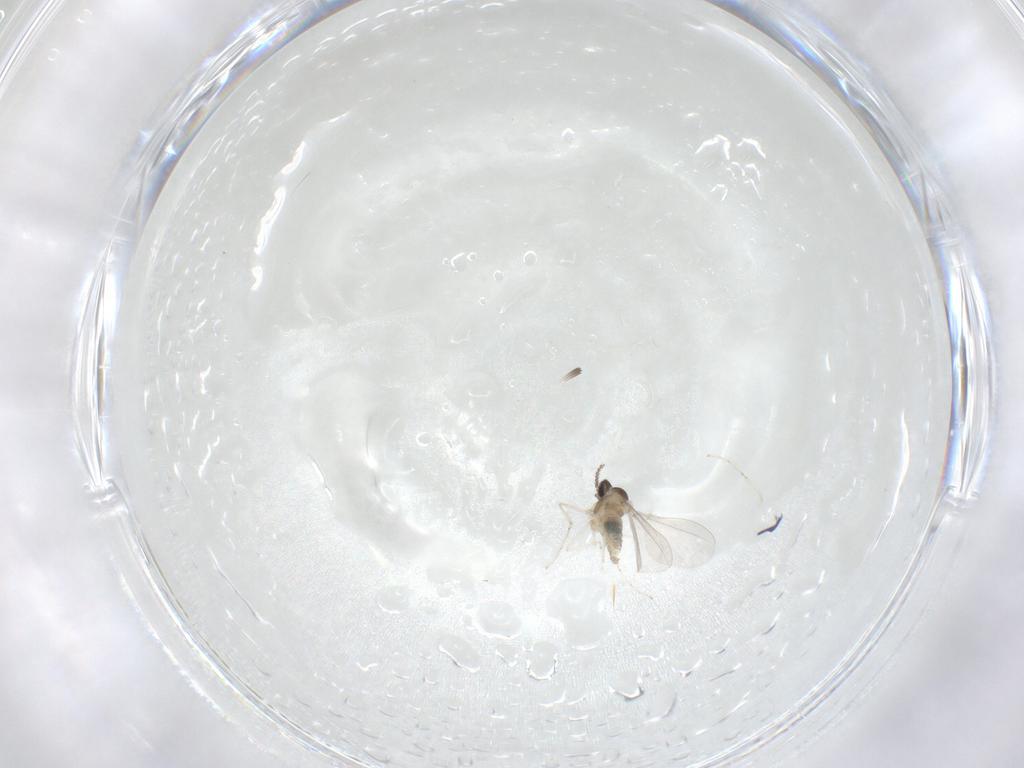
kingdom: Animalia
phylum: Arthropoda
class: Insecta
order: Diptera
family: Cecidomyiidae
